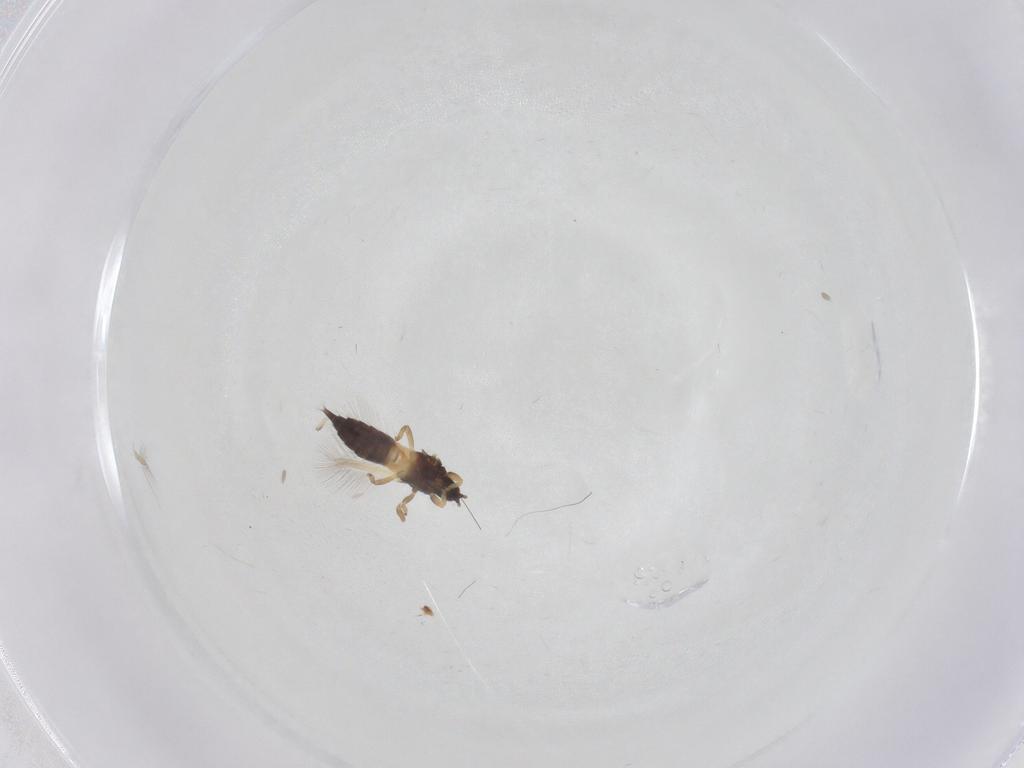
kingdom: Animalia
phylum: Arthropoda
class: Insecta
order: Thysanoptera
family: Phlaeothripidae
